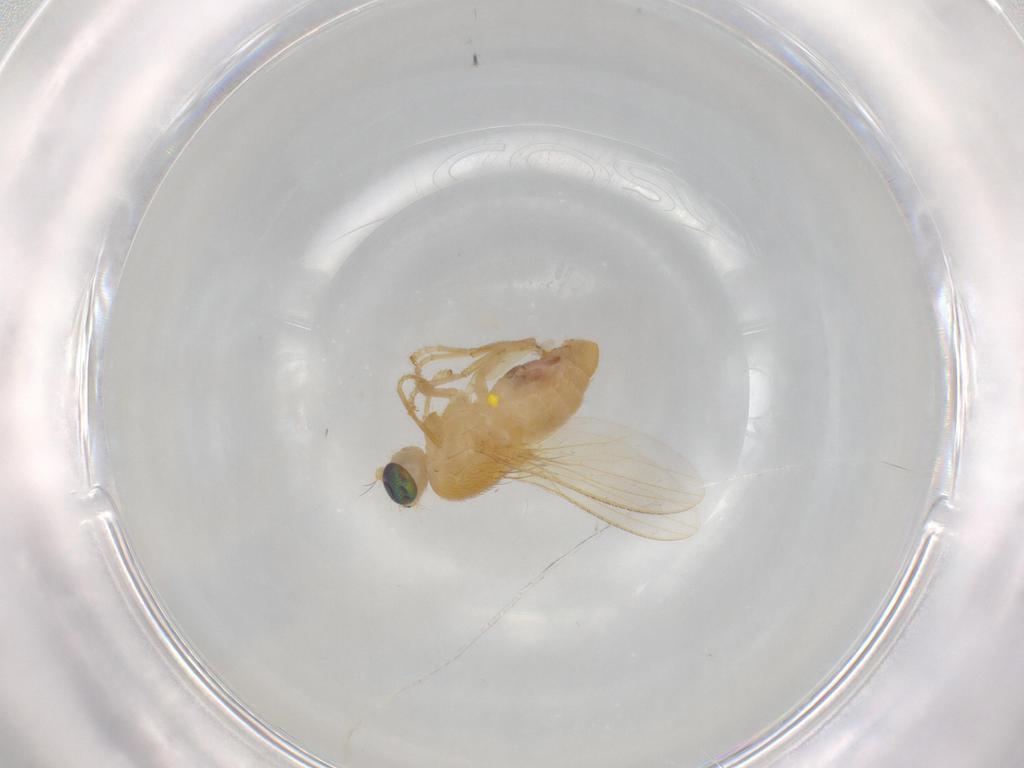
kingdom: Animalia
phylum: Arthropoda
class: Insecta
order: Diptera
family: Chyromyidae
